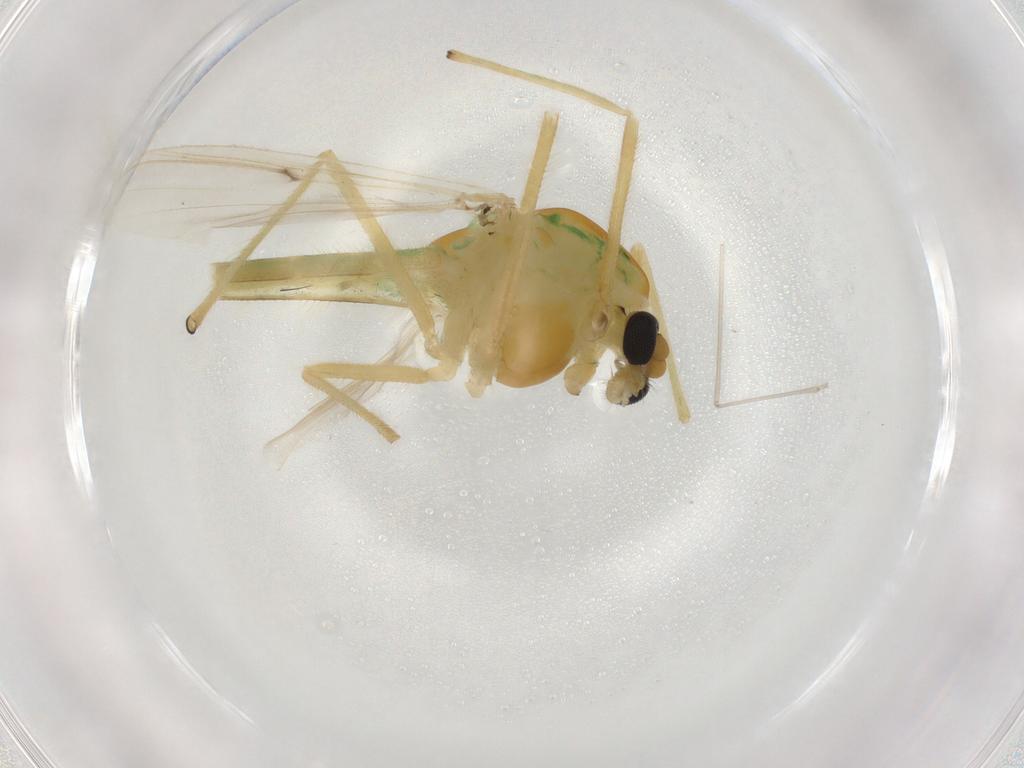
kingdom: Animalia
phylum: Arthropoda
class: Insecta
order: Diptera
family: Chironomidae
